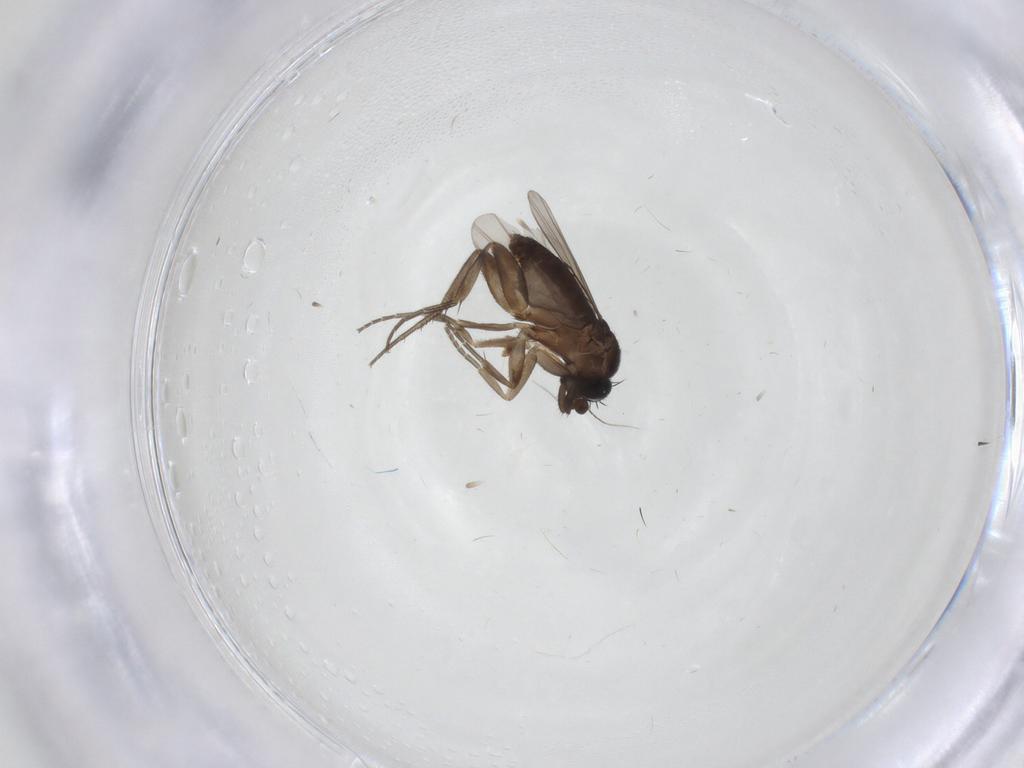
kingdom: Animalia
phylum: Arthropoda
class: Insecta
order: Diptera
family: Phoridae
